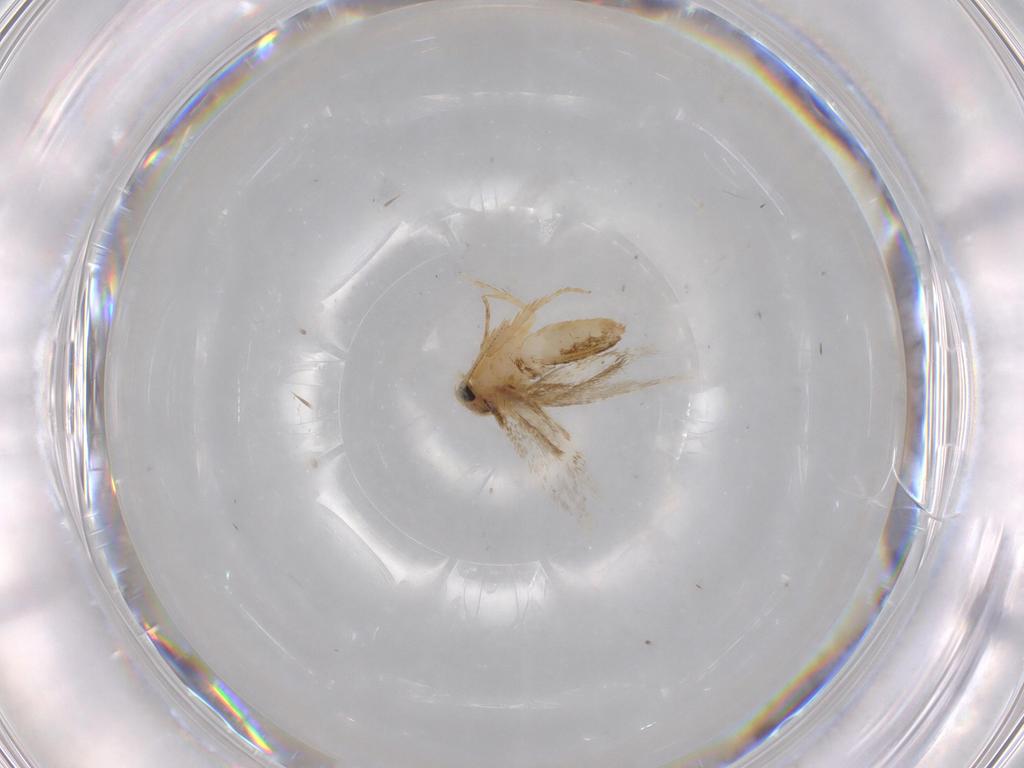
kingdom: Animalia
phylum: Arthropoda
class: Insecta
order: Lepidoptera
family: Nepticulidae
